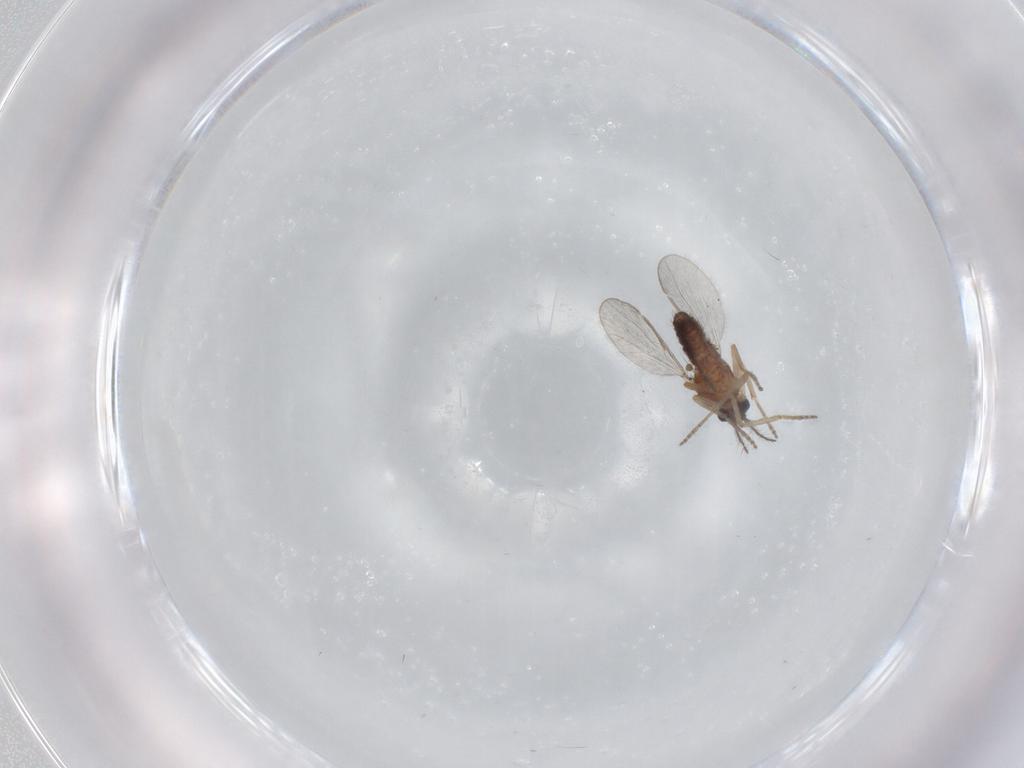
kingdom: Animalia
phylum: Arthropoda
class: Insecta
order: Diptera
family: Ceratopogonidae
